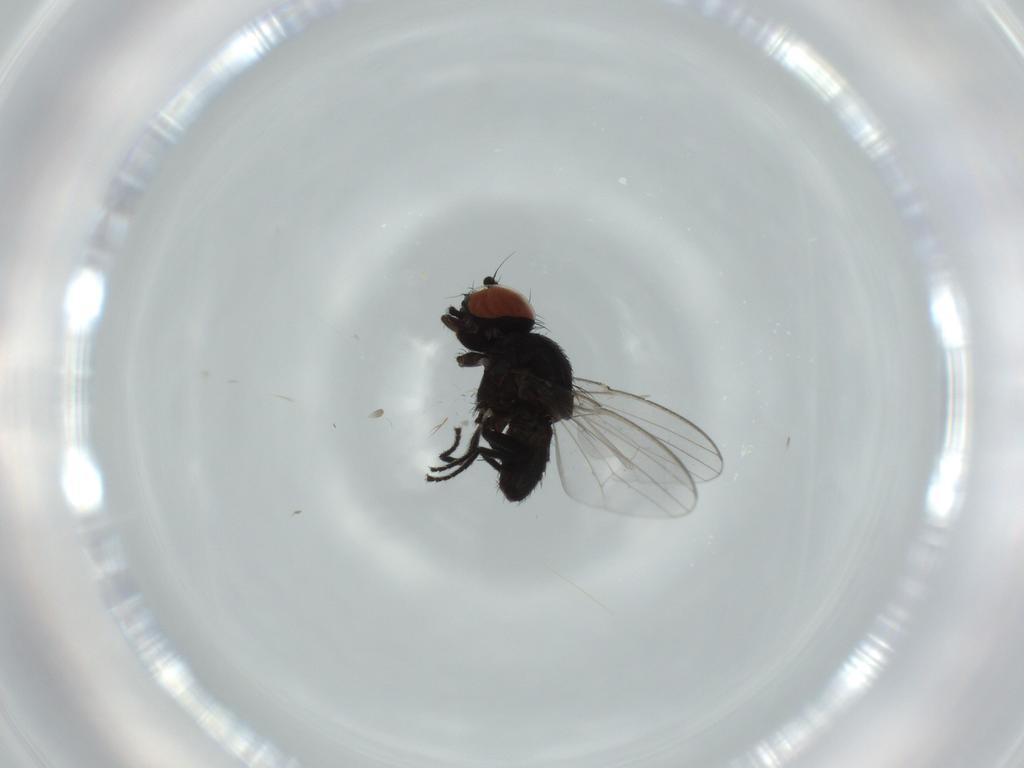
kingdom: Animalia
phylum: Arthropoda
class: Insecta
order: Diptera
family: Milichiidae
